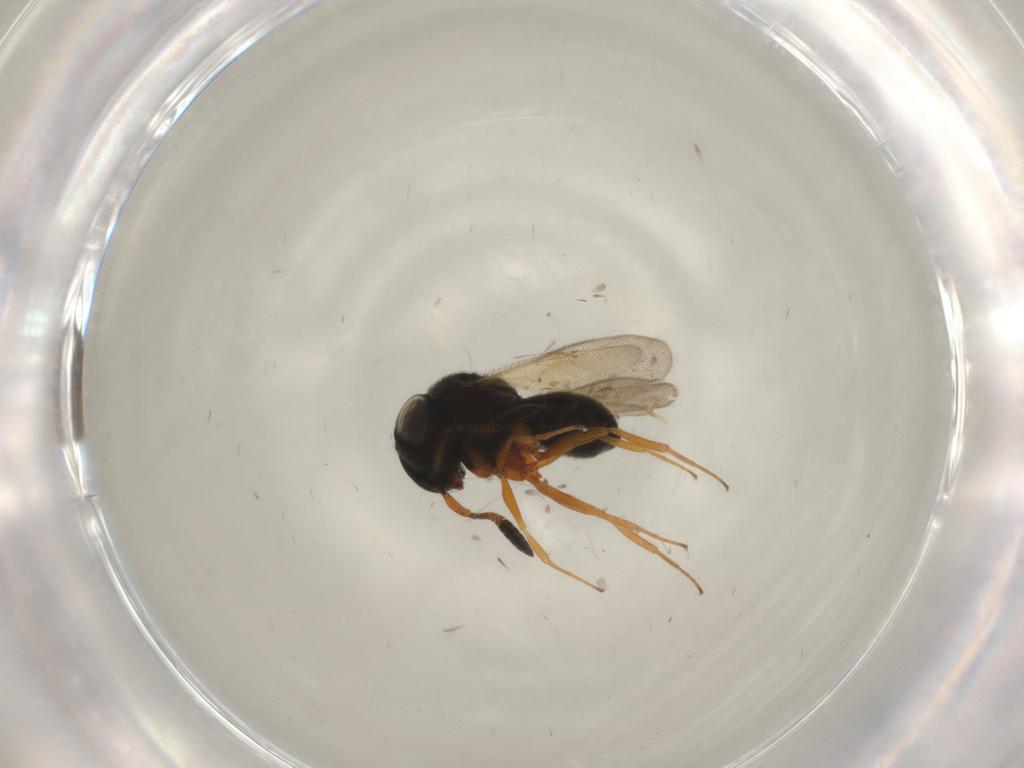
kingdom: Animalia
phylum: Arthropoda
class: Insecta
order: Hymenoptera
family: Scelionidae
